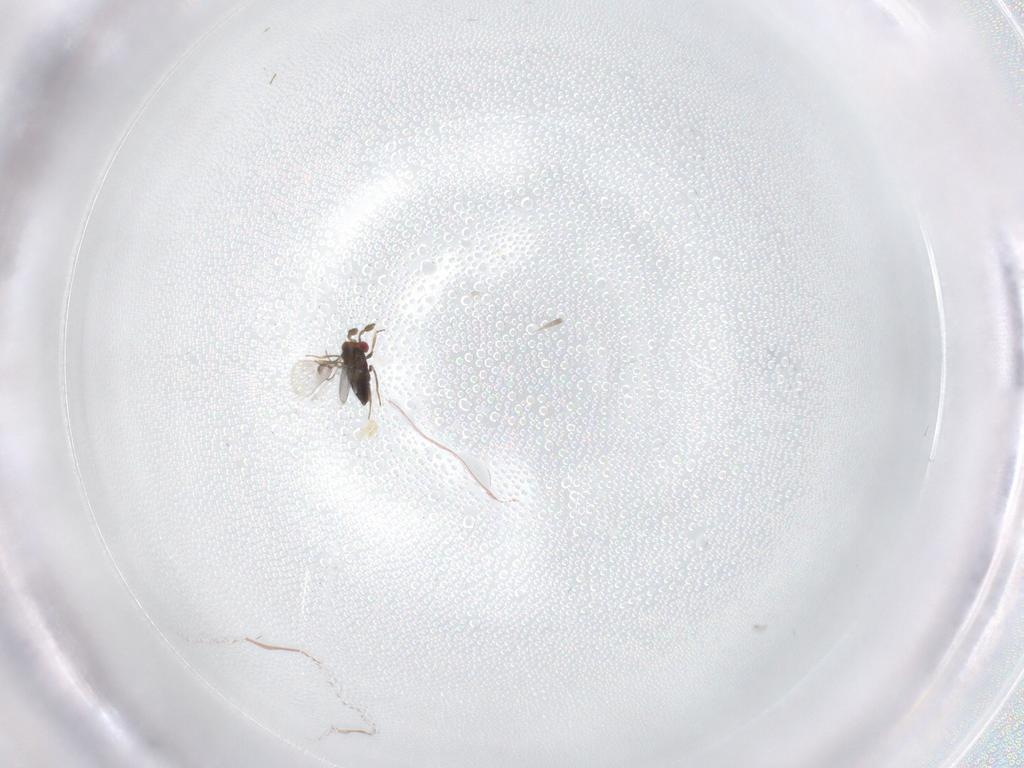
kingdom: Animalia
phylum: Arthropoda
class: Insecta
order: Hymenoptera
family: Trichogrammatidae
